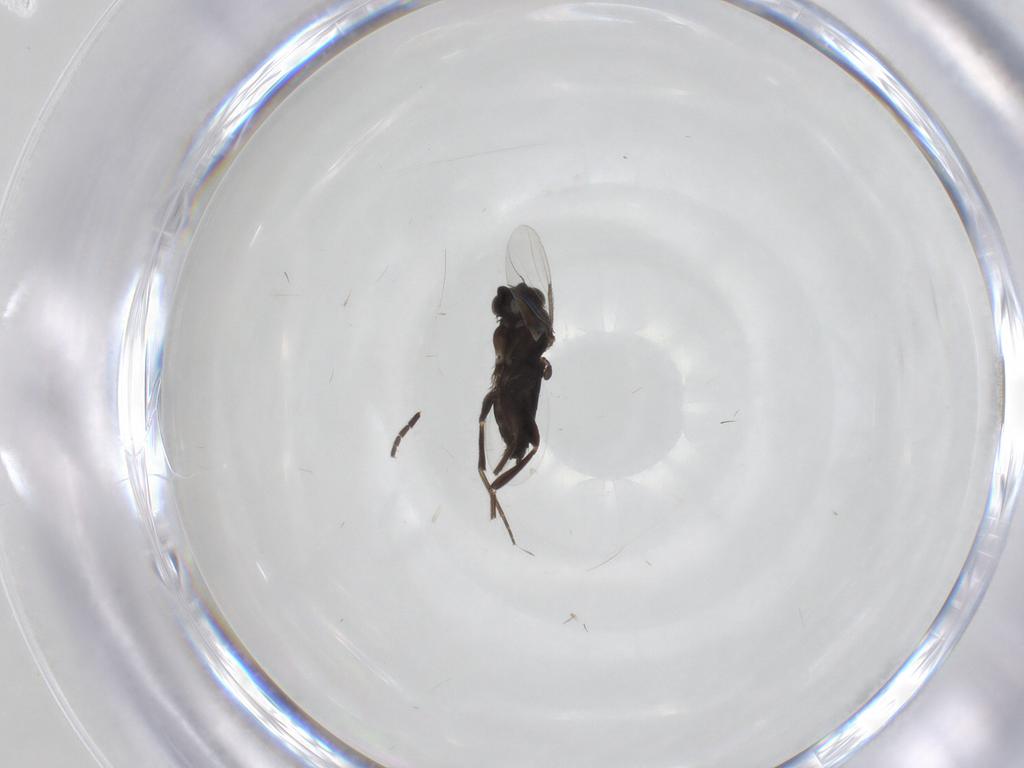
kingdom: Animalia
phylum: Arthropoda
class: Insecta
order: Diptera
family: Phoridae
